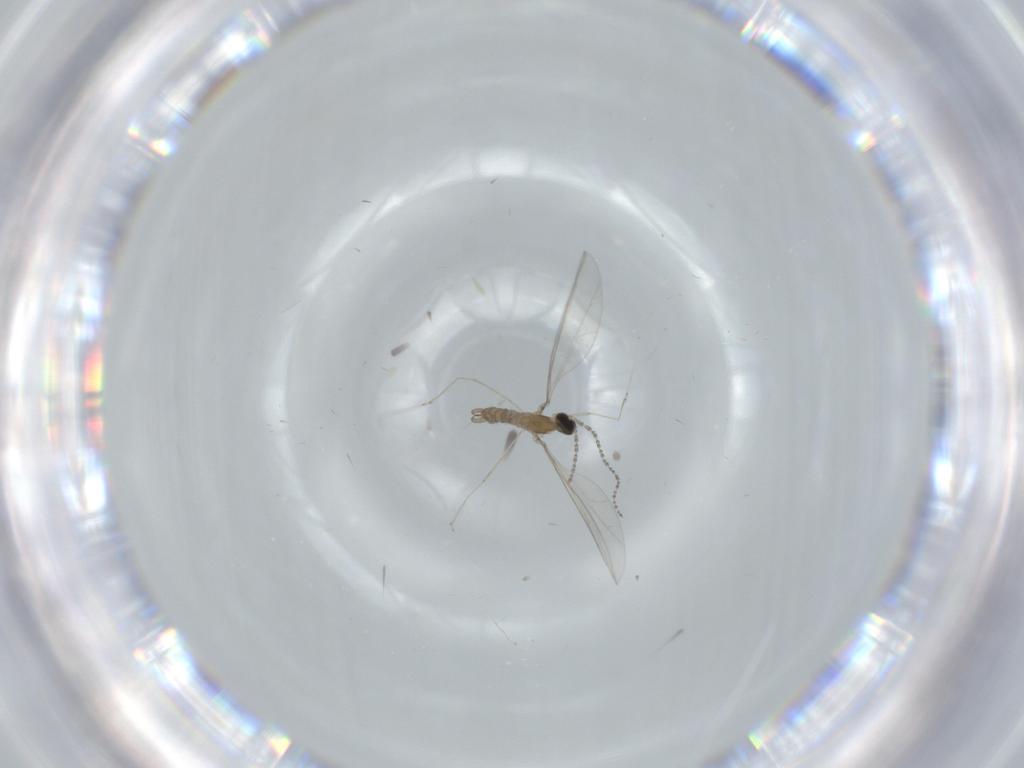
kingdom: Animalia
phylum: Arthropoda
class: Insecta
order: Diptera
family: Cecidomyiidae
